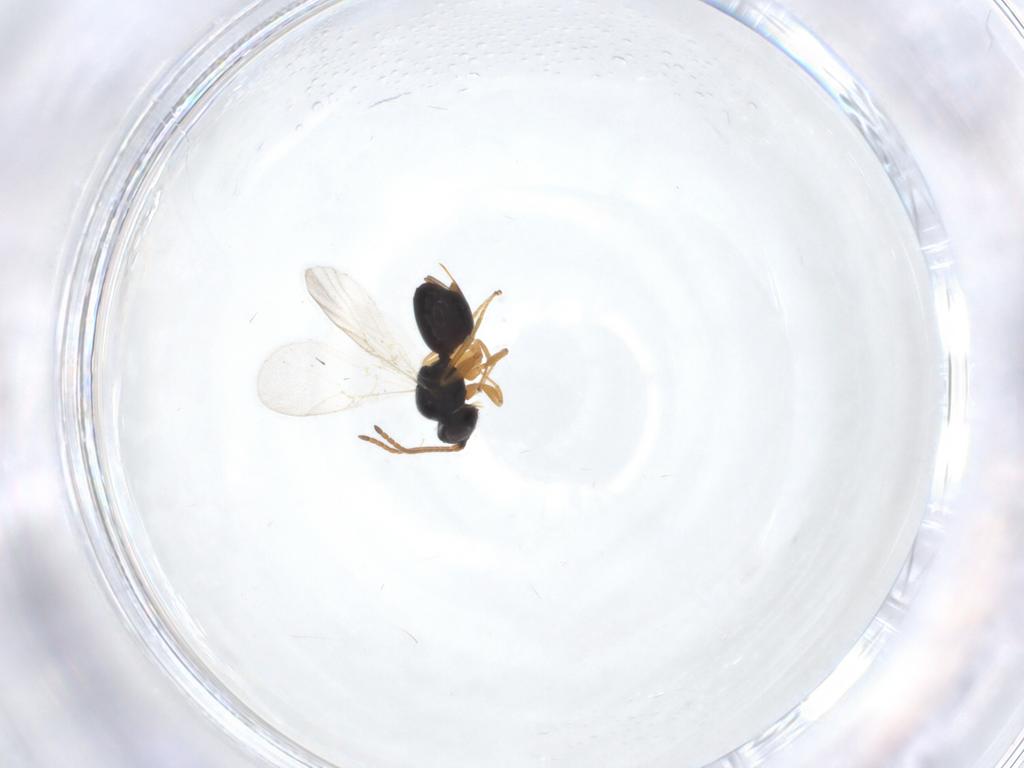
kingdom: Animalia
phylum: Arthropoda
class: Insecta
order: Hymenoptera
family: Cynipidae
